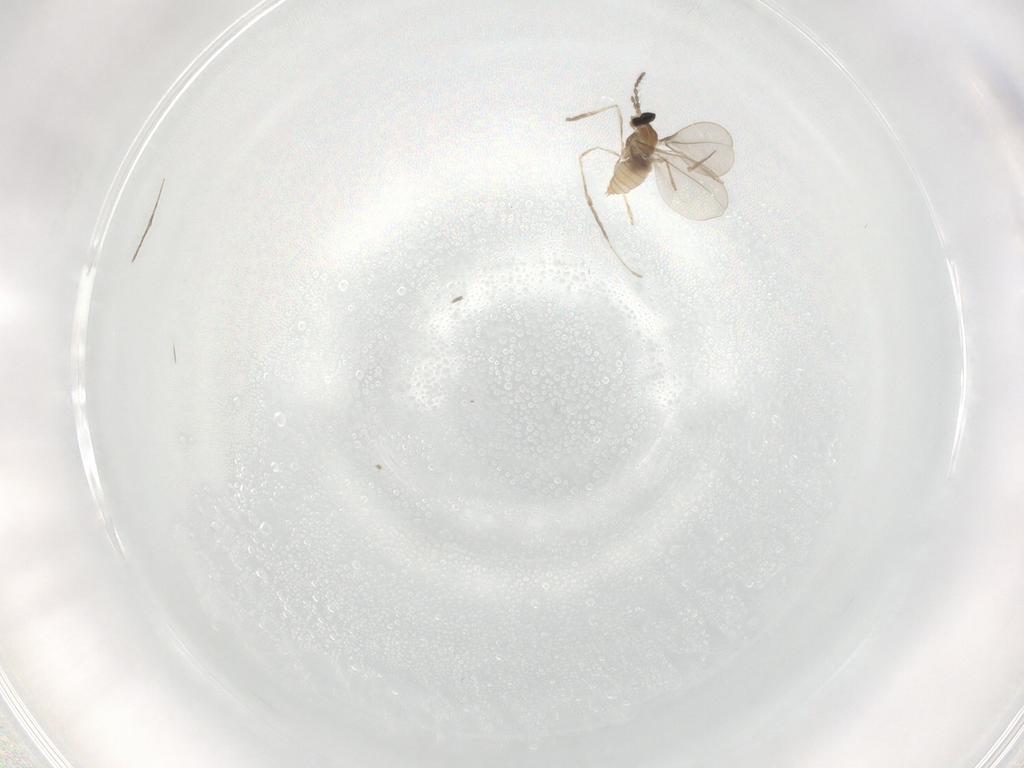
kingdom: Animalia
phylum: Arthropoda
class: Insecta
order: Diptera
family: Cecidomyiidae
